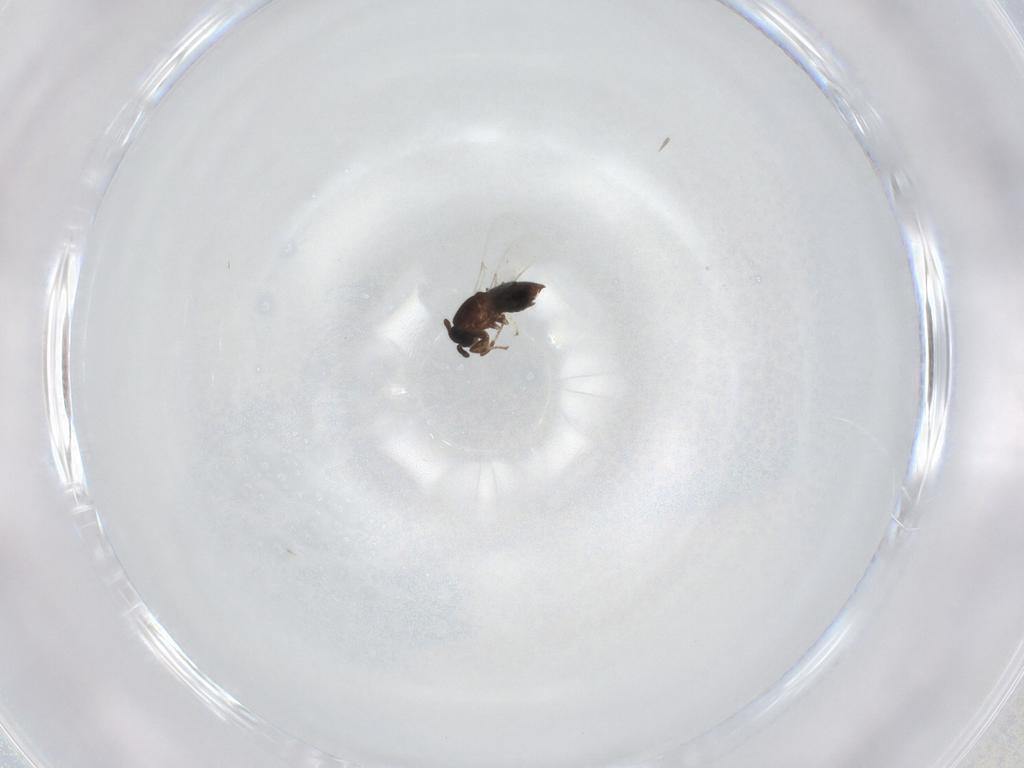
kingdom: Animalia
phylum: Arthropoda
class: Insecta
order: Diptera
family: Scatopsidae
